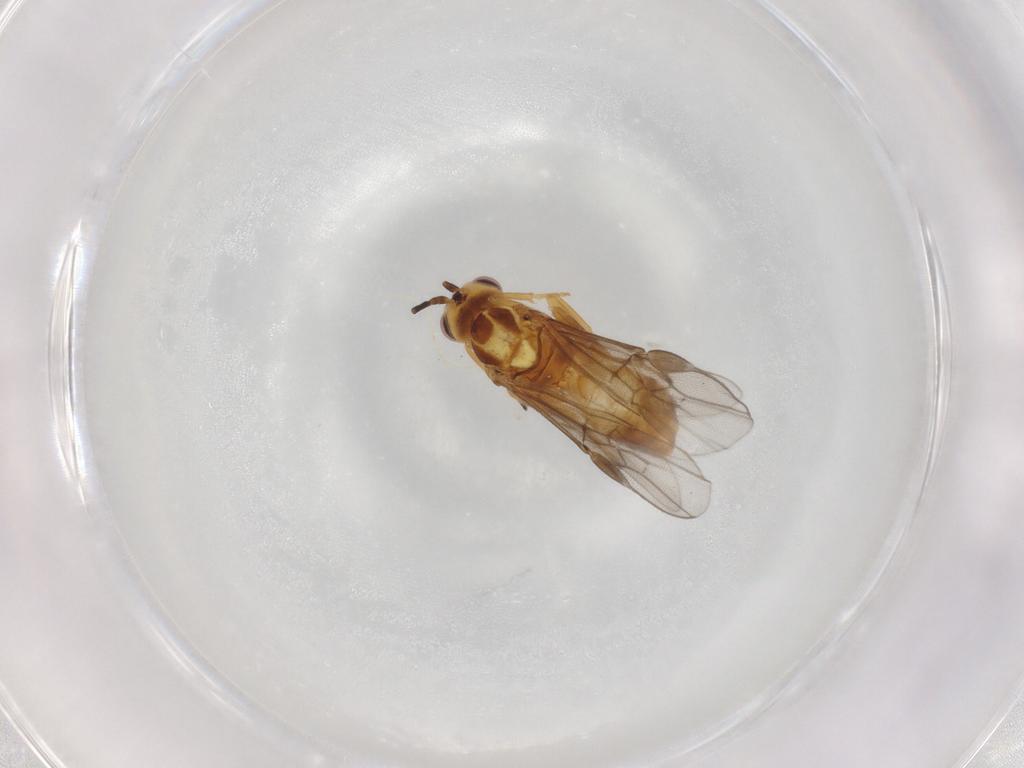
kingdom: Animalia
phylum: Arthropoda
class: Insecta
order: Hymenoptera
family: Braconidae
